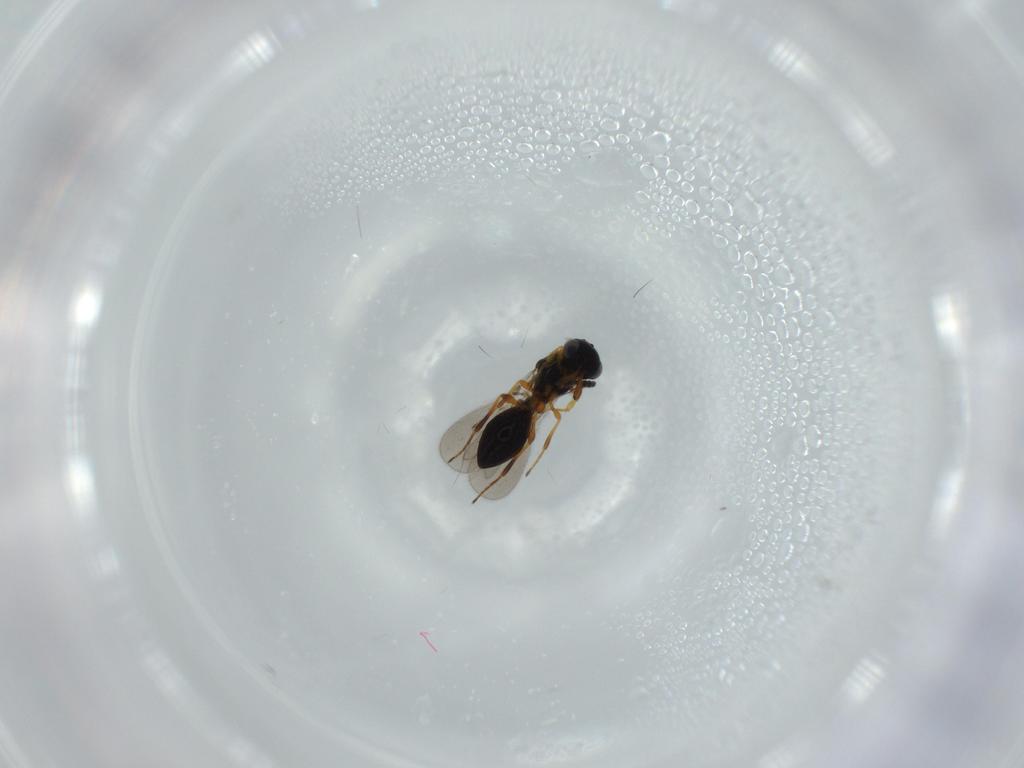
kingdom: Animalia
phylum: Arthropoda
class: Insecta
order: Hymenoptera
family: Platygastridae
